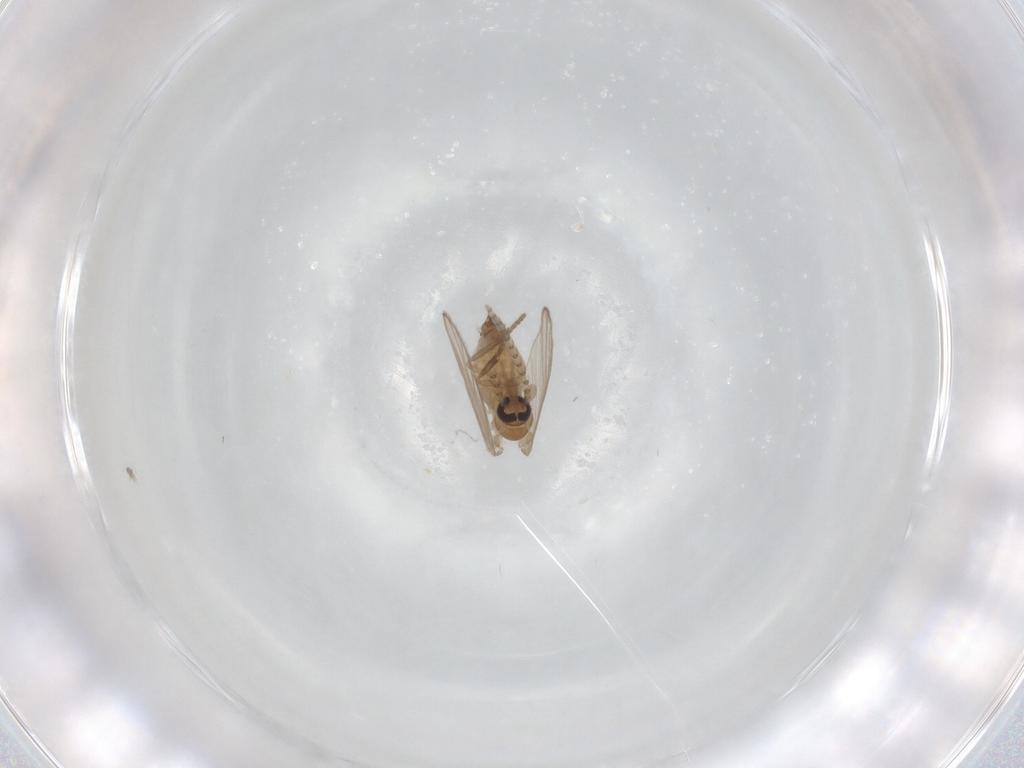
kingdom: Animalia
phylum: Arthropoda
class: Insecta
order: Diptera
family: Psychodidae
